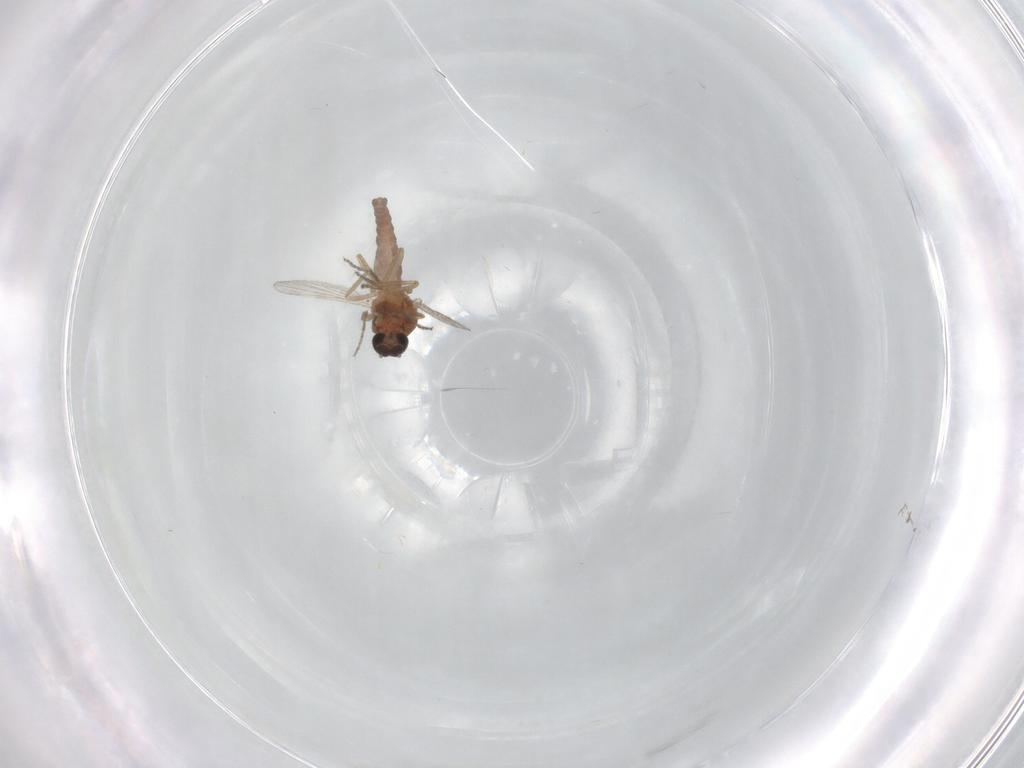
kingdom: Animalia
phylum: Arthropoda
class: Insecta
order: Diptera
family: Ceratopogonidae
